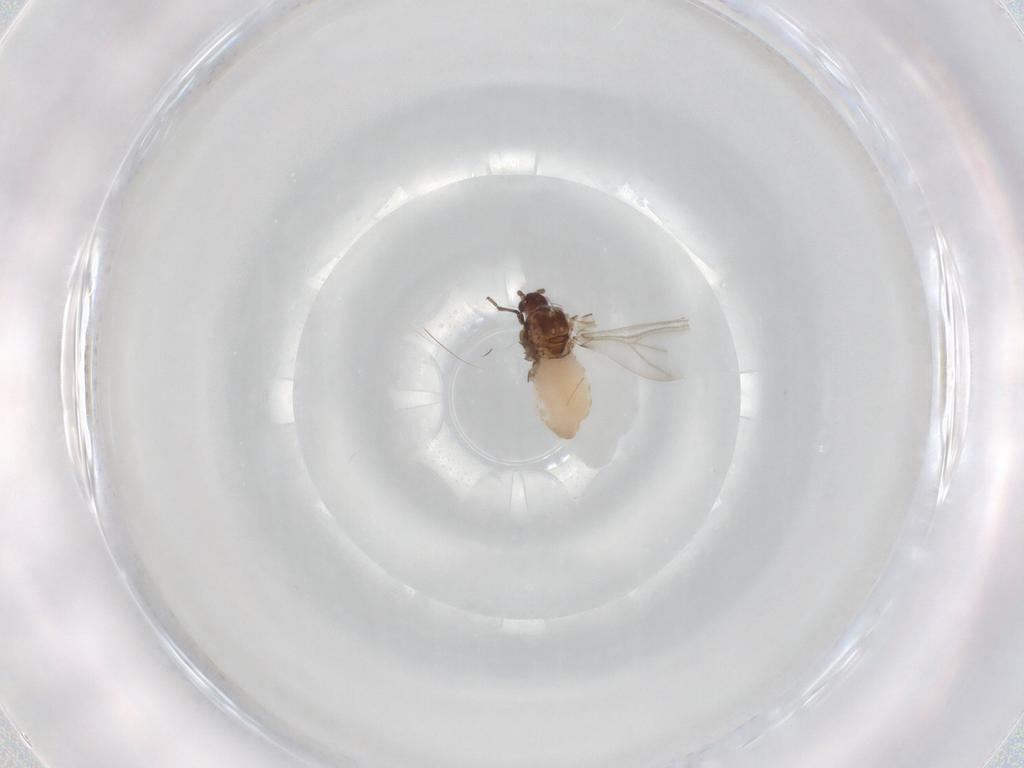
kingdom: Animalia
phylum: Arthropoda
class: Insecta
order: Hemiptera
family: Aphididae
